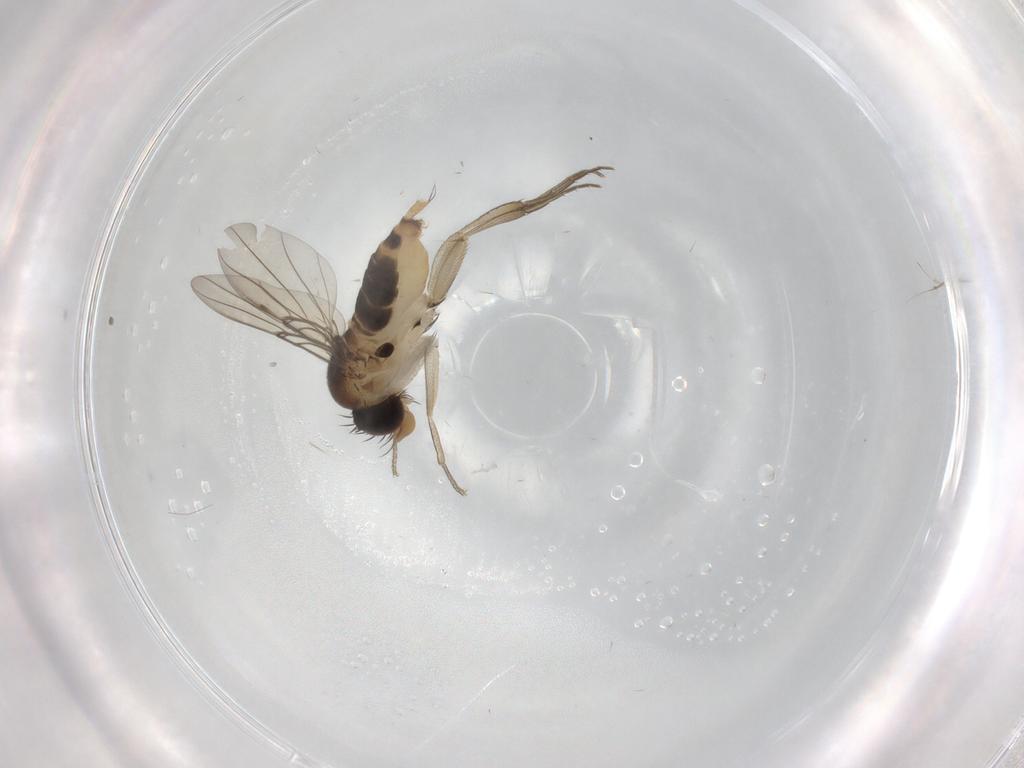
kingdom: Animalia
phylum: Arthropoda
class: Insecta
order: Diptera
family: Phoridae
